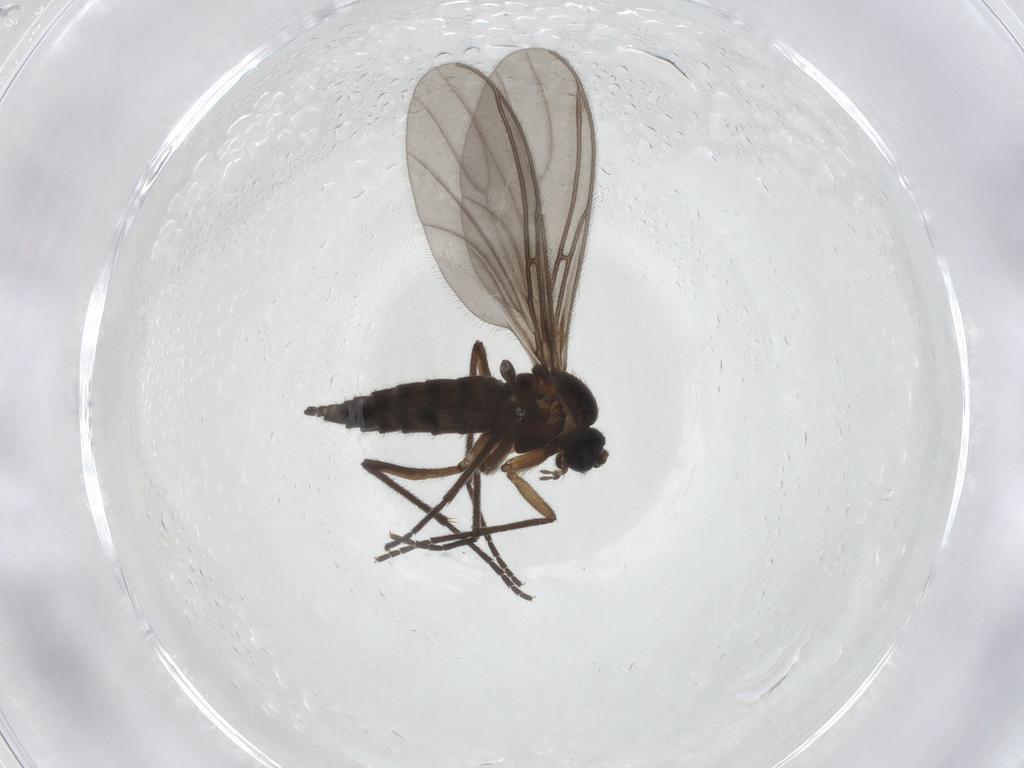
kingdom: Animalia
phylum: Arthropoda
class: Insecta
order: Diptera
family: Sciaridae
